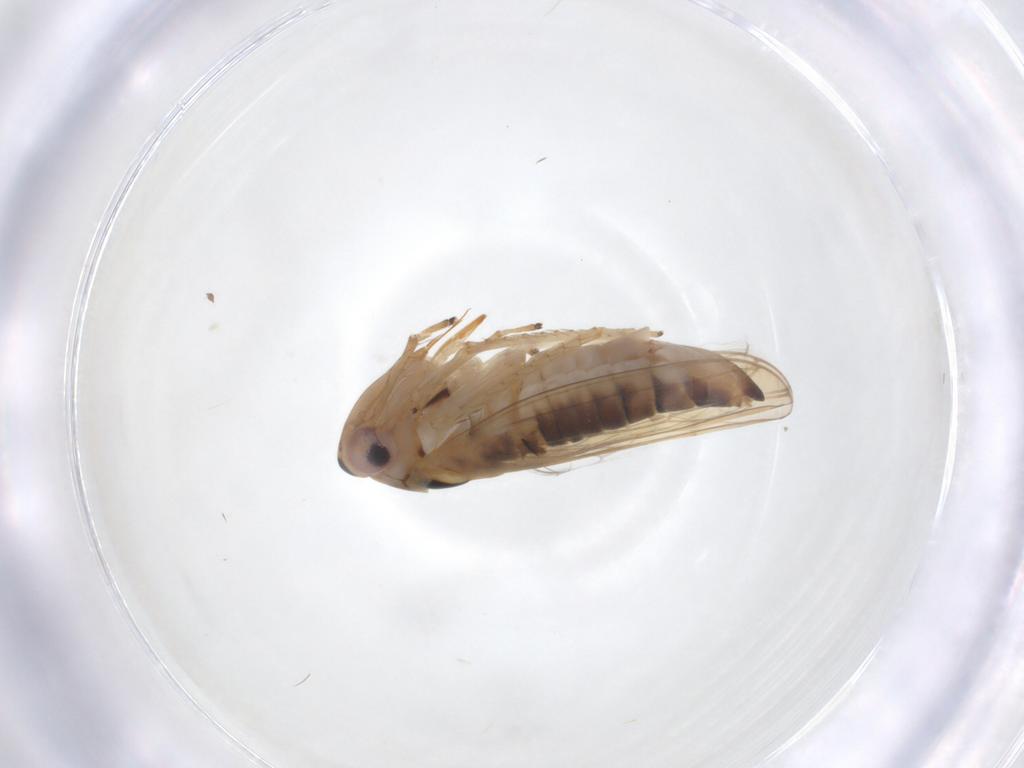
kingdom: Animalia
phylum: Arthropoda
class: Insecta
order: Hemiptera
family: Cicadellidae
